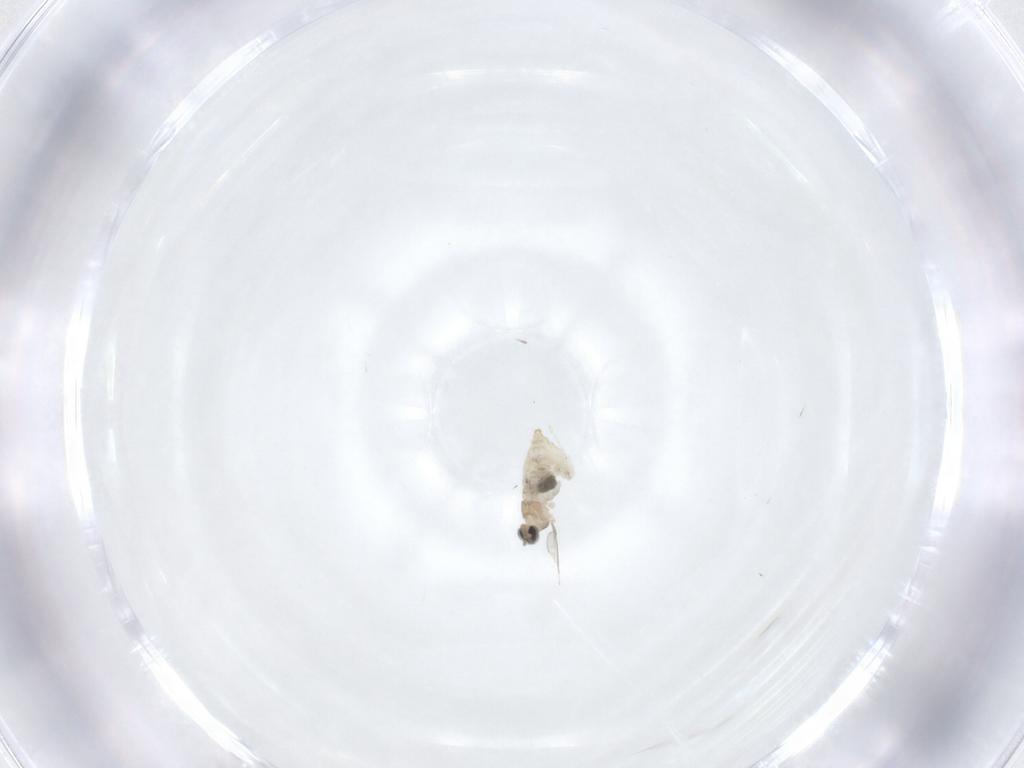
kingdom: Animalia
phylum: Arthropoda
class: Insecta
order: Diptera
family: Cecidomyiidae
